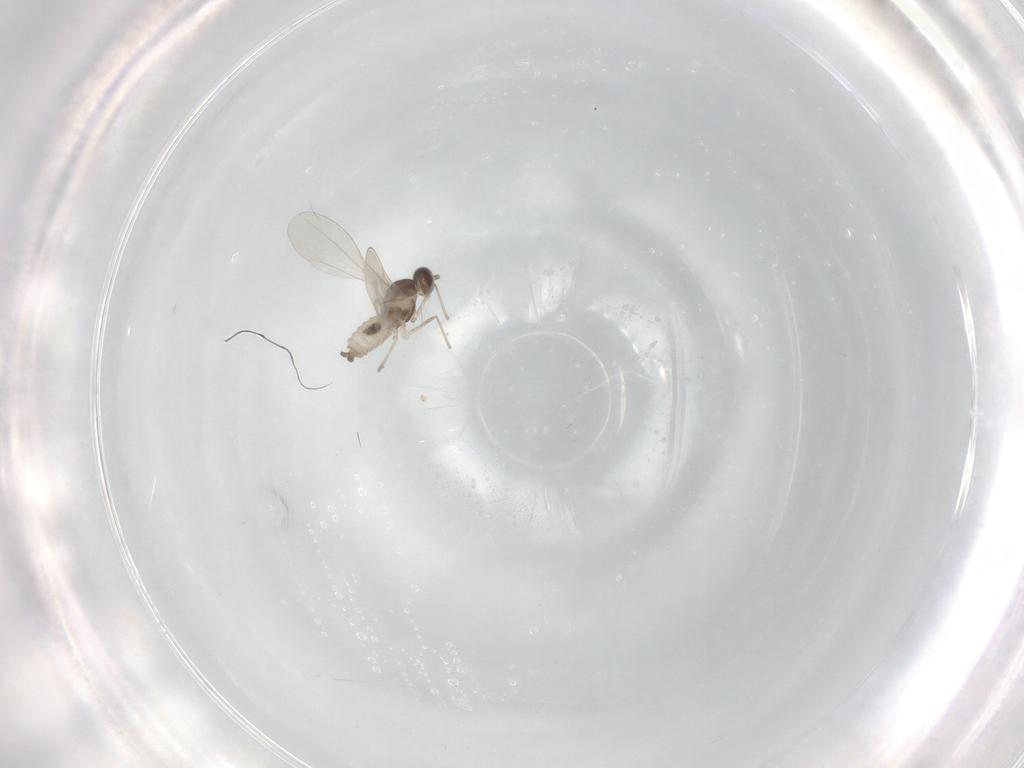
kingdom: Animalia
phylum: Arthropoda
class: Insecta
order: Diptera
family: Cecidomyiidae
